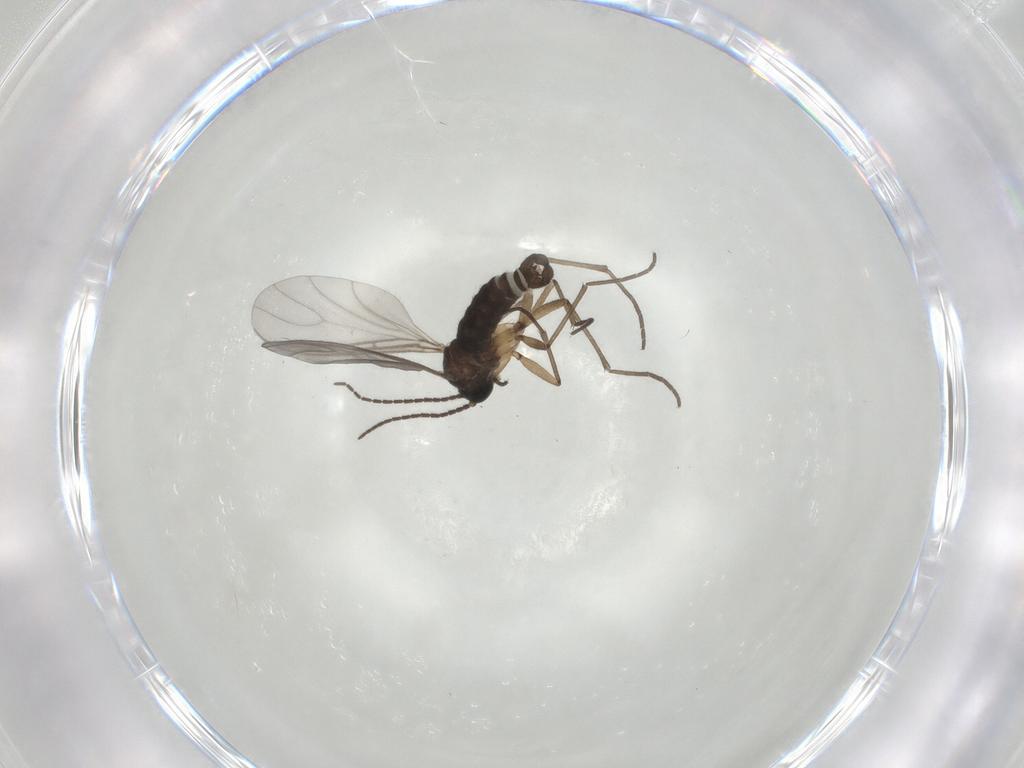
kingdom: Animalia
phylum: Arthropoda
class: Insecta
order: Diptera
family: Sciaridae
